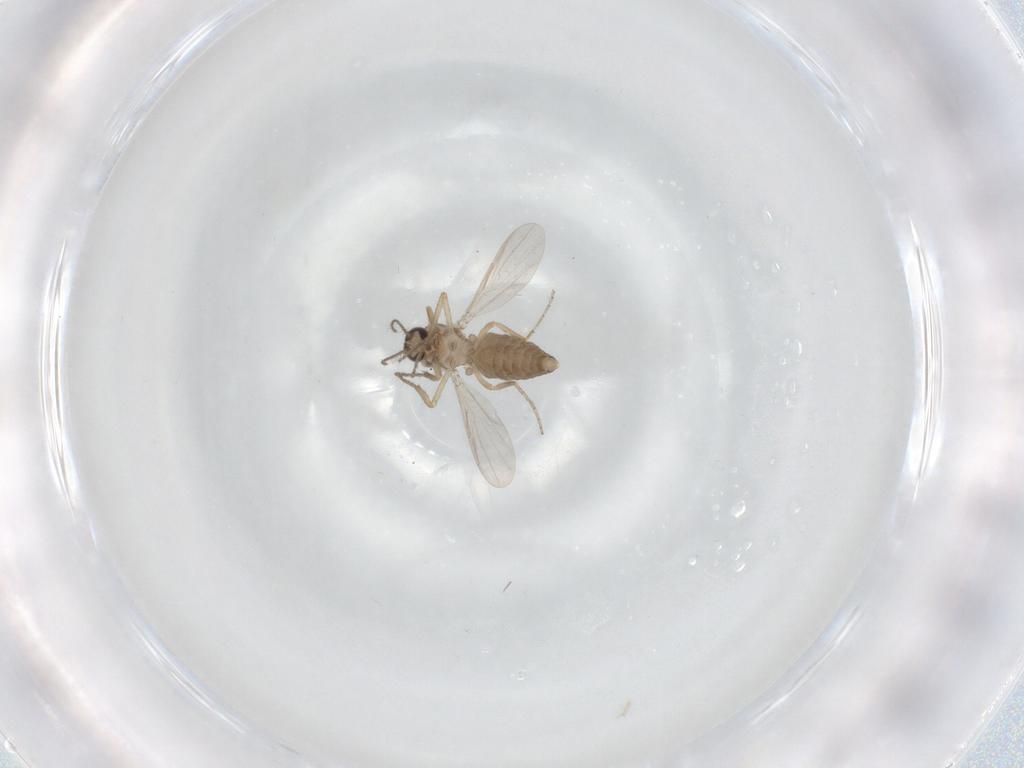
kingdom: Animalia
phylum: Arthropoda
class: Insecta
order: Diptera
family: Ceratopogonidae
